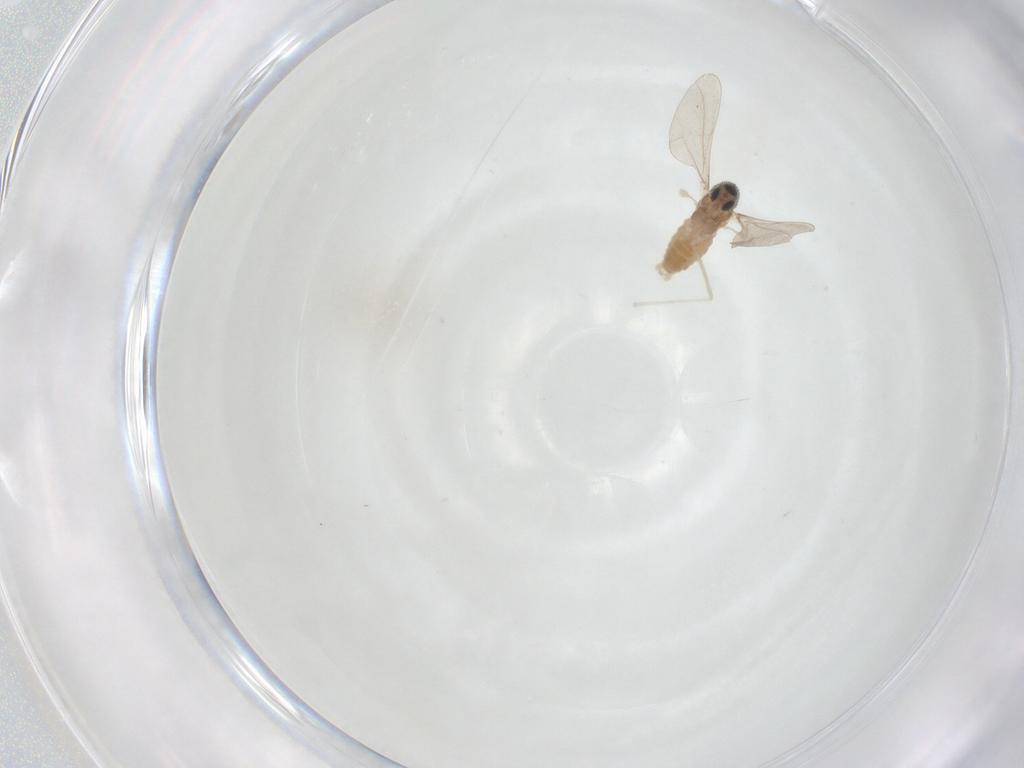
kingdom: Animalia
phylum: Arthropoda
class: Insecta
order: Diptera
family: Cecidomyiidae
